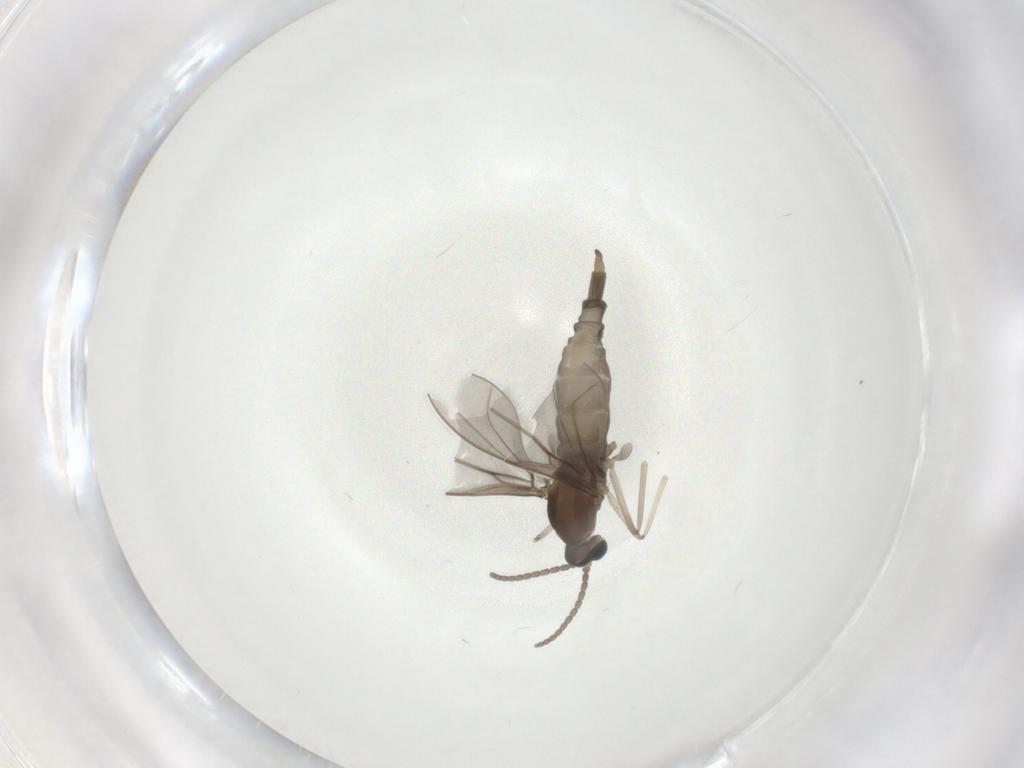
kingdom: Animalia
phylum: Arthropoda
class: Insecta
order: Diptera
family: Cecidomyiidae
